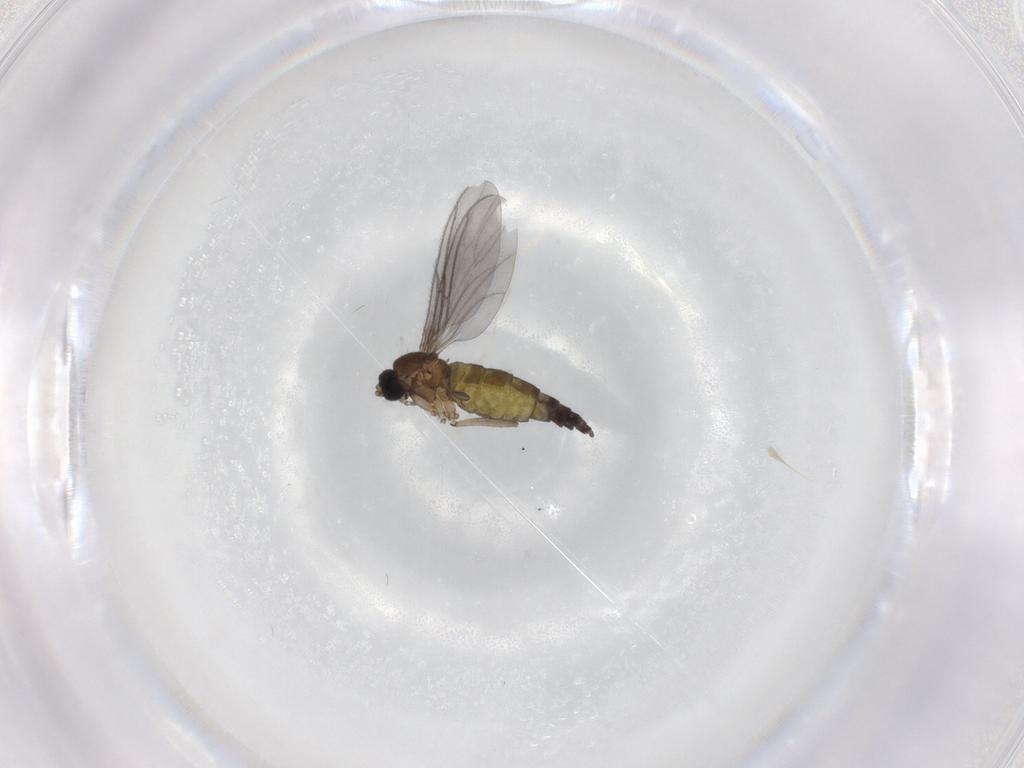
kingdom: Animalia
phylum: Arthropoda
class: Insecta
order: Diptera
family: Sciaridae
